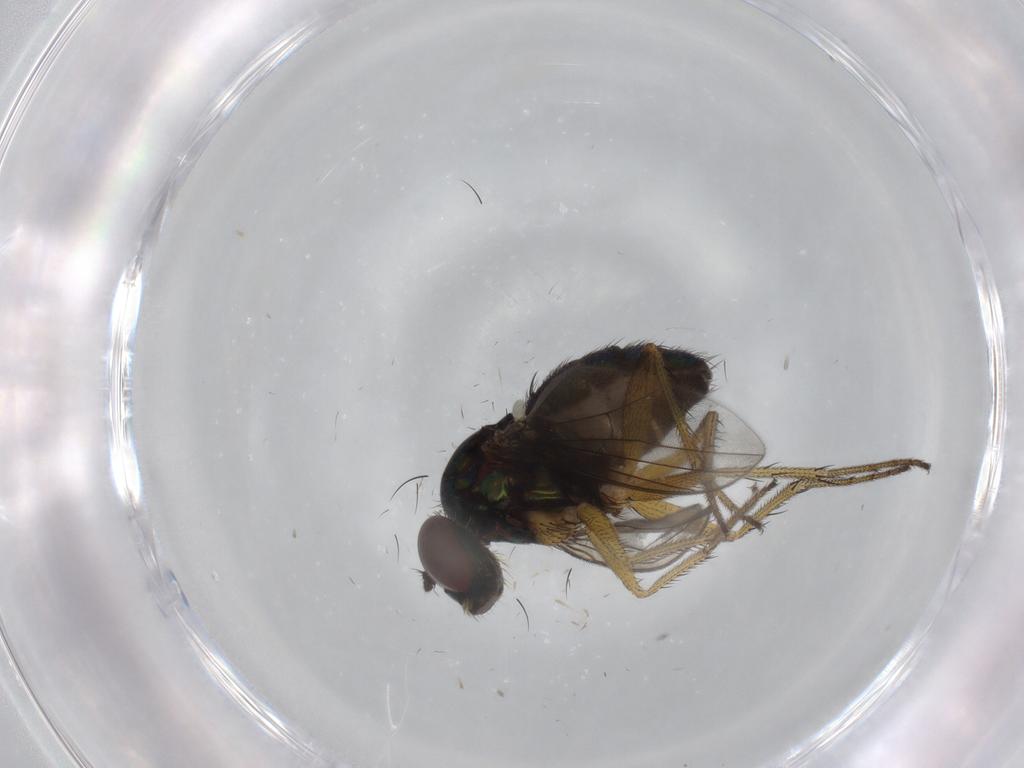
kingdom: Animalia
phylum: Arthropoda
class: Insecta
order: Diptera
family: Dolichopodidae
